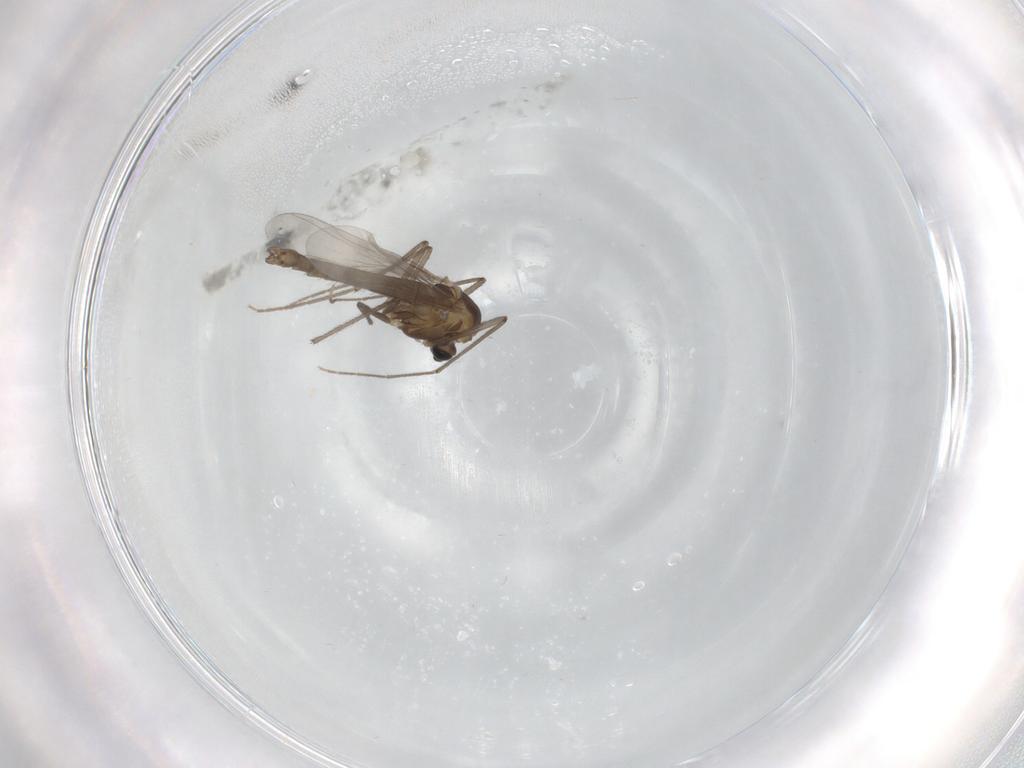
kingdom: Animalia
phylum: Arthropoda
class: Insecta
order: Diptera
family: Chironomidae
